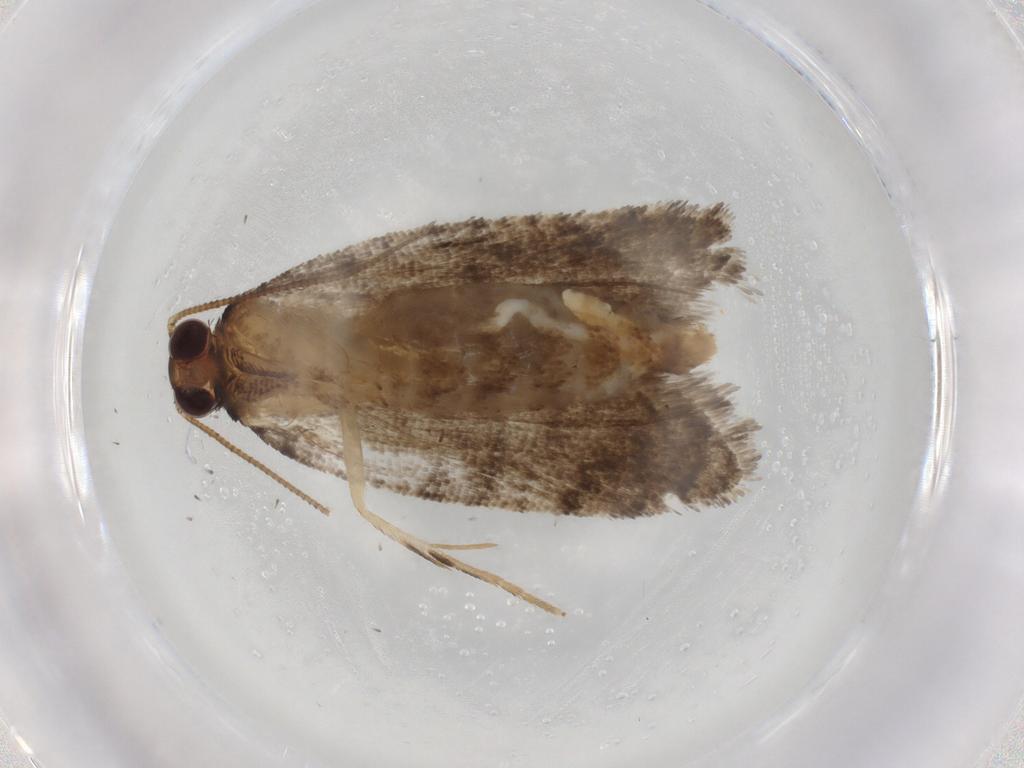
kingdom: Animalia
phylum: Arthropoda
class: Insecta
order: Lepidoptera
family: Tortricidae
